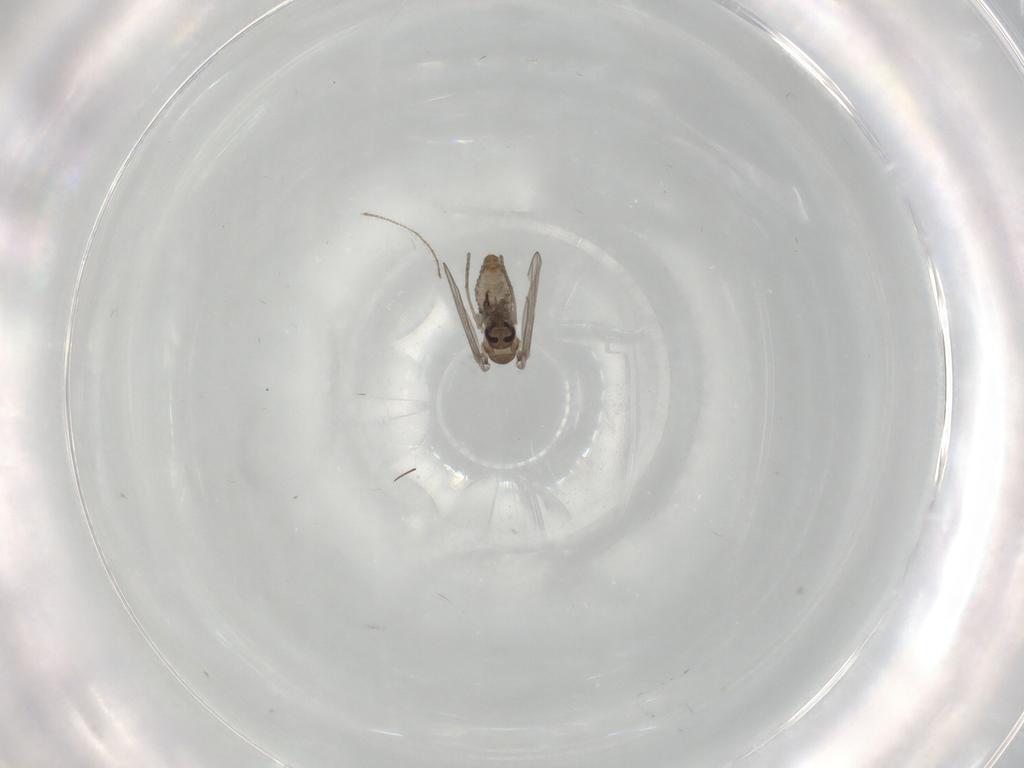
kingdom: Animalia
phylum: Arthropoda
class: Insecta
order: Diptera
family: Psychodidae
